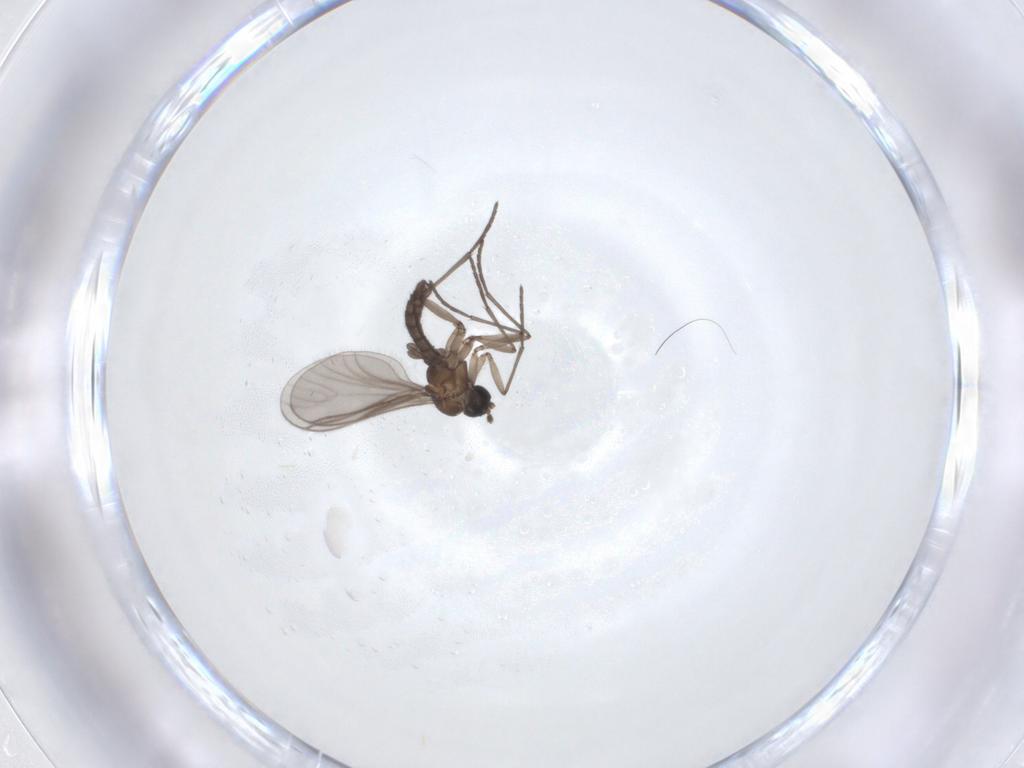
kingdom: Animalia
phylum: Arthropoda
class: Insecta
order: Diptera
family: Sciaridae
